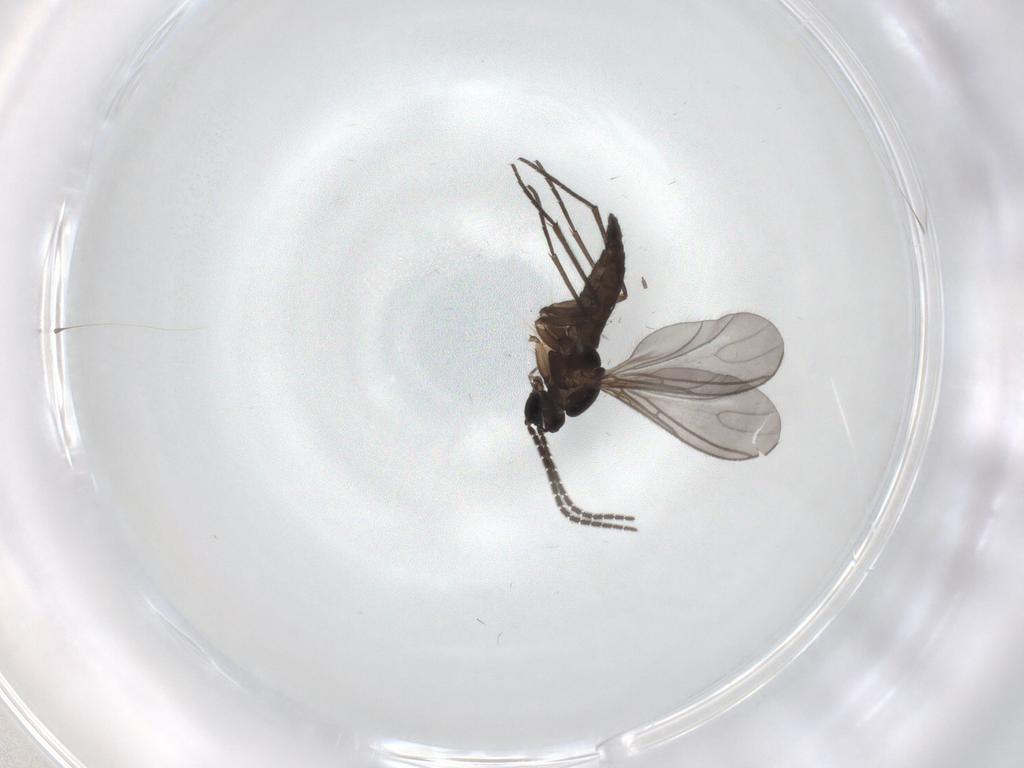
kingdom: Animalia
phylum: Arthropoda
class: Insecta
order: Diptera
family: Sciaridae
